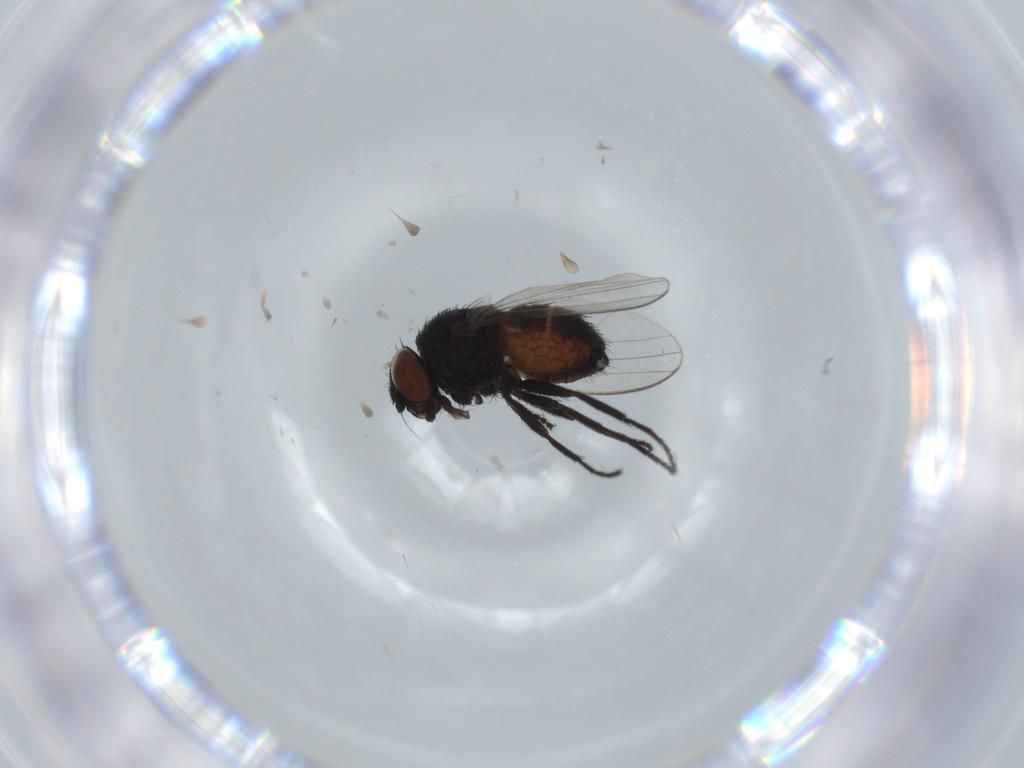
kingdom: Animalia
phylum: Arthropoda
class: Insecta
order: Diptera
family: Milichiidae
